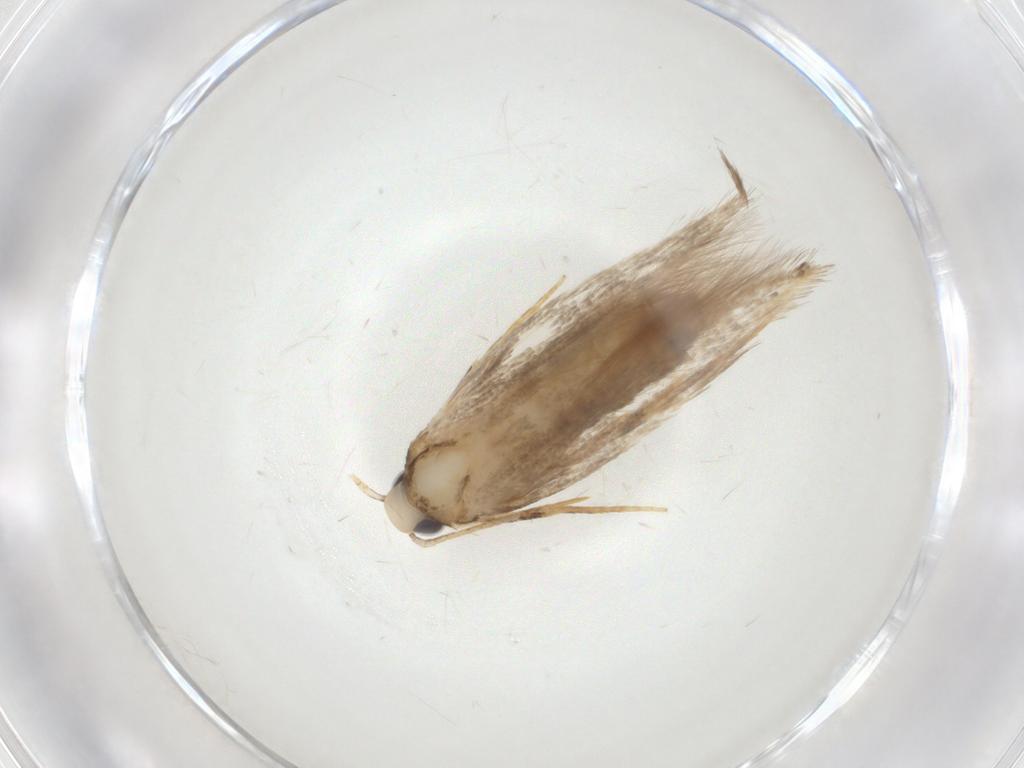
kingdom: Animalia
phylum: Arthropoda
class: Insecta
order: Lepidoptera
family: Coleophoridae
